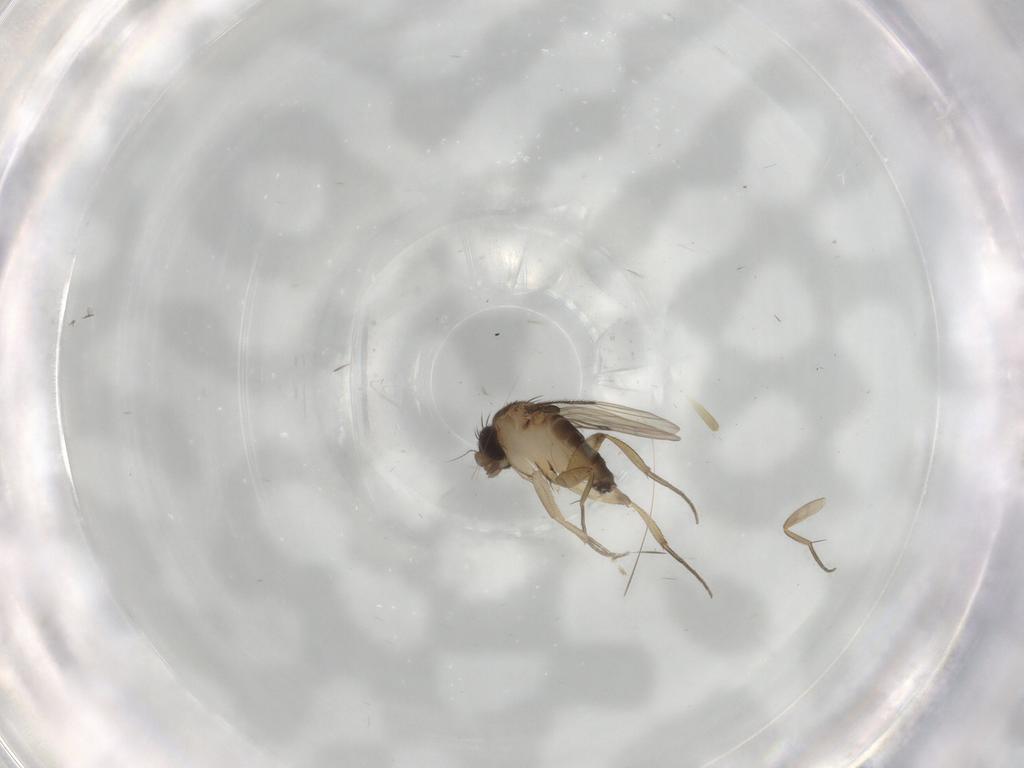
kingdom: Animalia
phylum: Arthropoda
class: Insecta
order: Diptera
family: Phoridae
